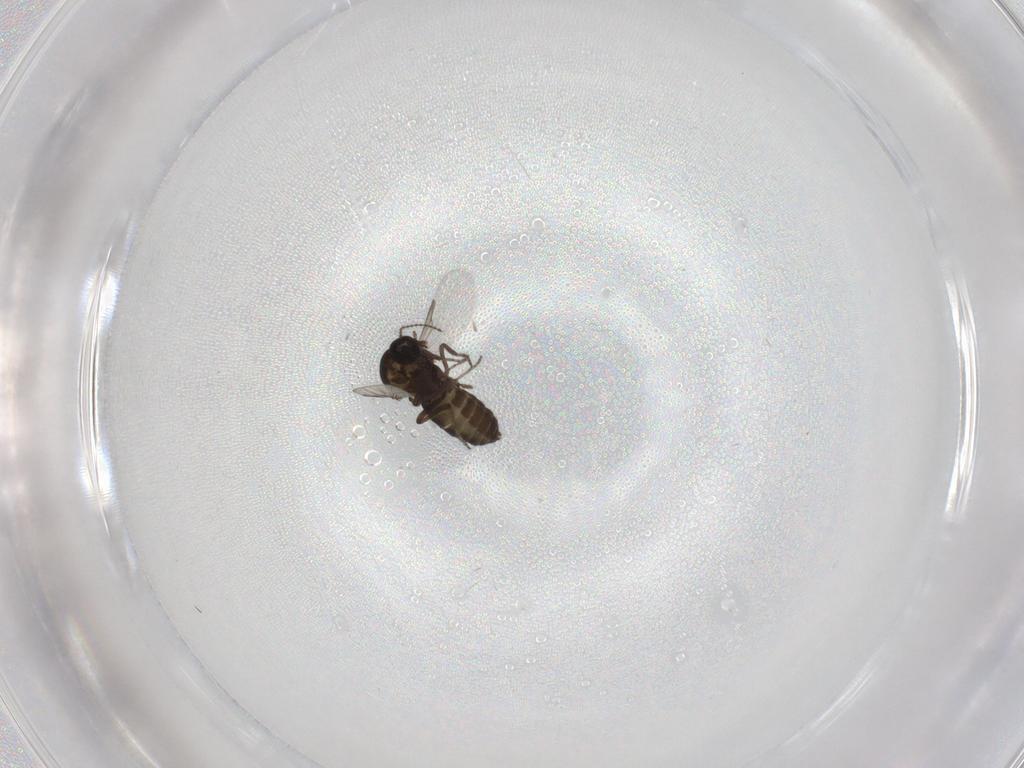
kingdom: Animalia
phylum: Arthropoda
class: Insecta
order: Diptera
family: Ceratopogonidae
